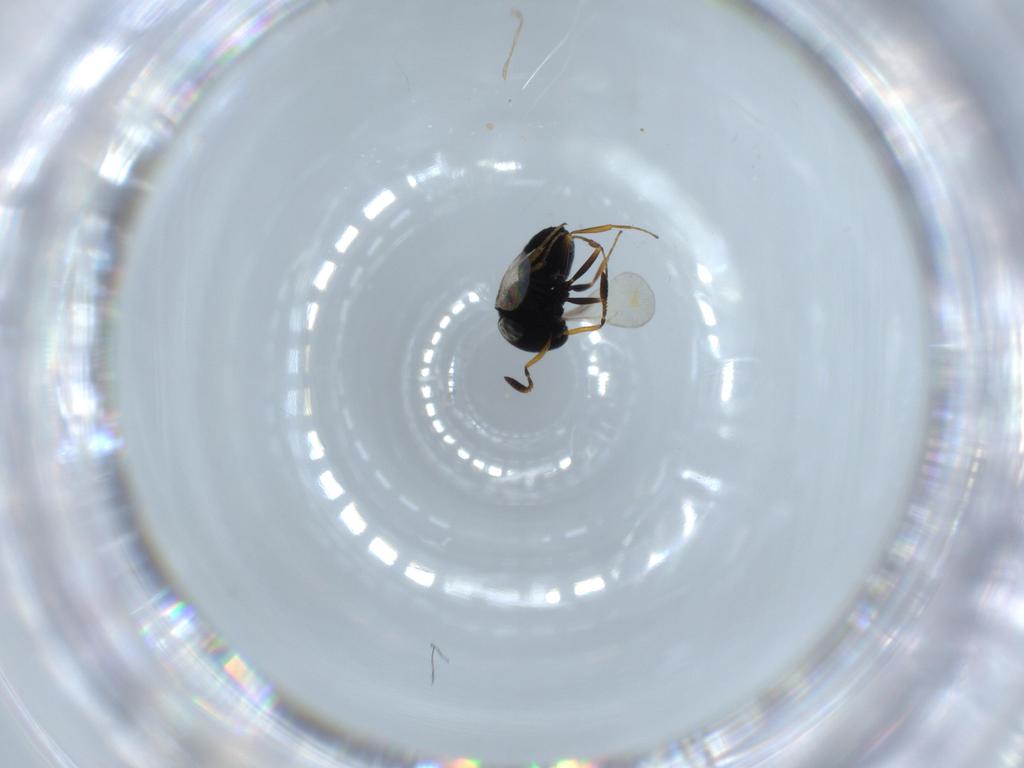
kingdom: Animalia
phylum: Arthropoda
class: Insecta
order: Hymenoptera
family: Scelionidae
